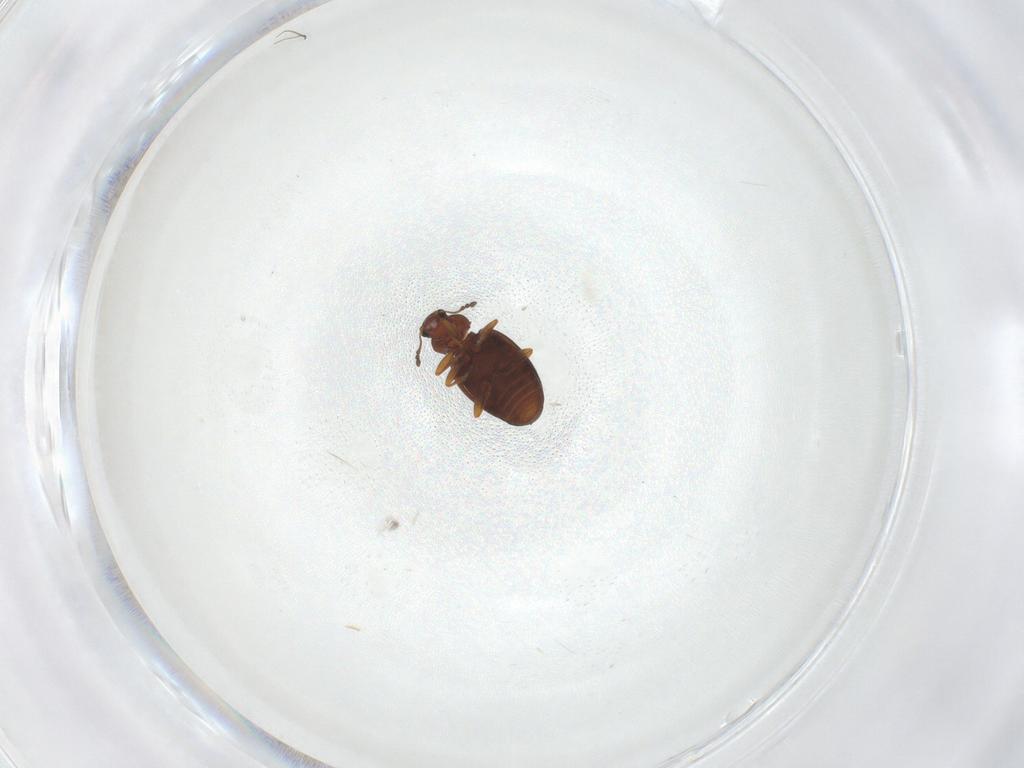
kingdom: Animalia
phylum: Arthropoda
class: Insecta
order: Coleoptera
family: Latridiidae
